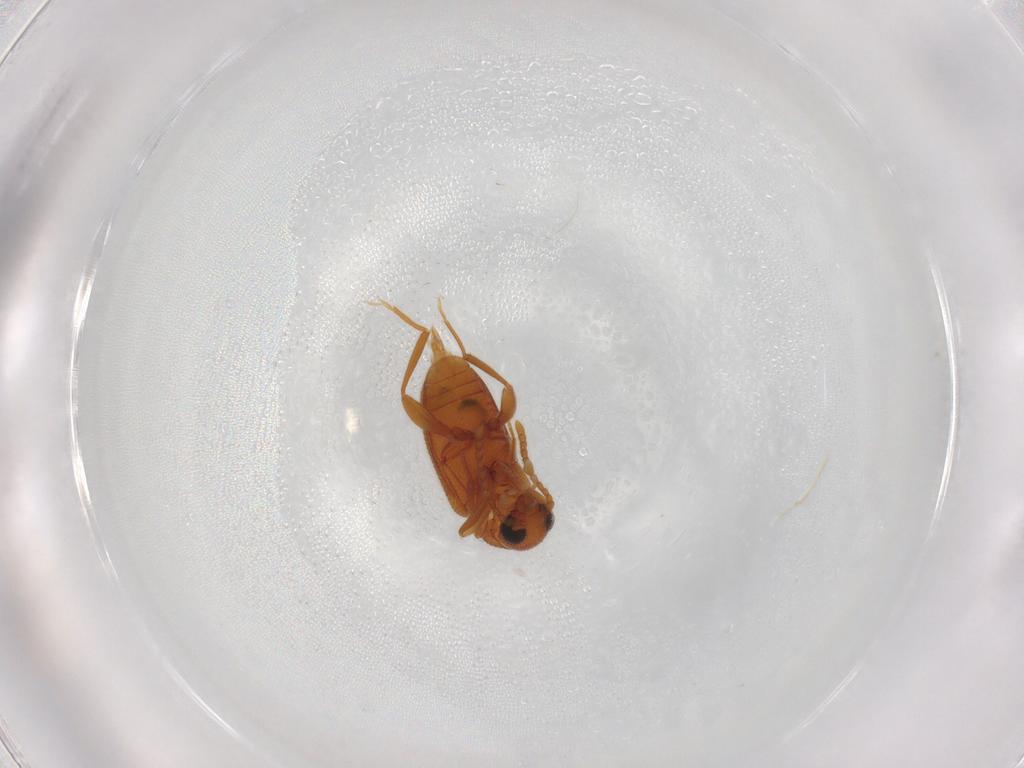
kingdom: Animalia
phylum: Arthropoda
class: Insecta
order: Coleoptera
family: Aderidae
